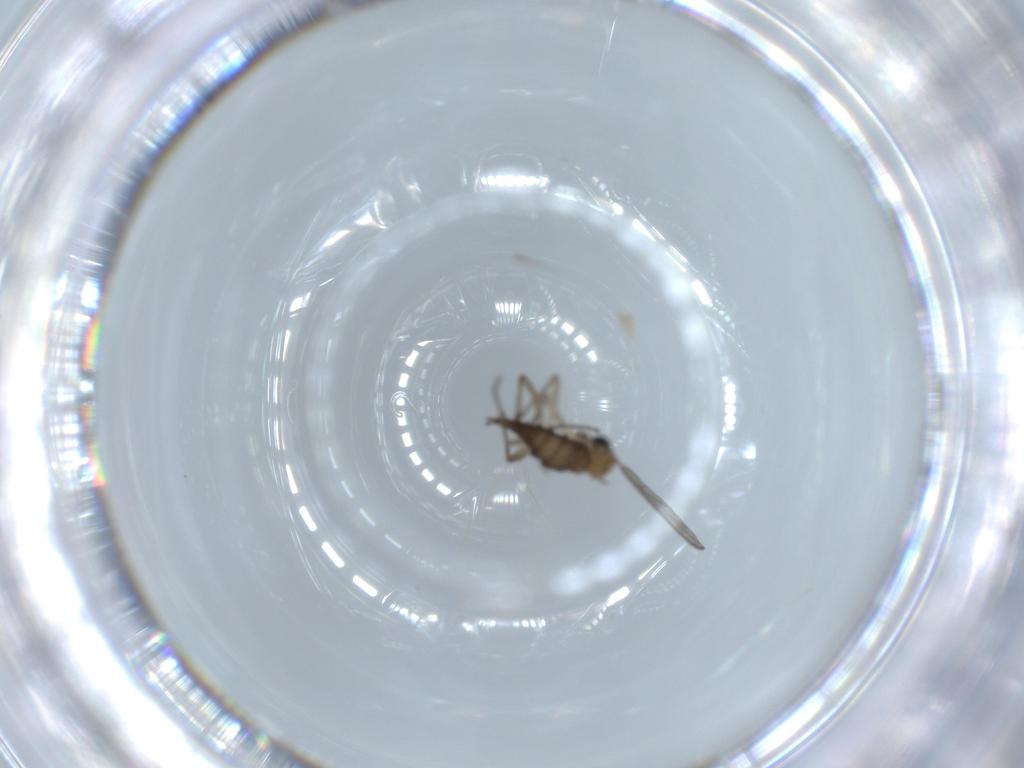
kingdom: Animalia
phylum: Arthropoda
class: Insecta
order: Diptera
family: Sciaridae
